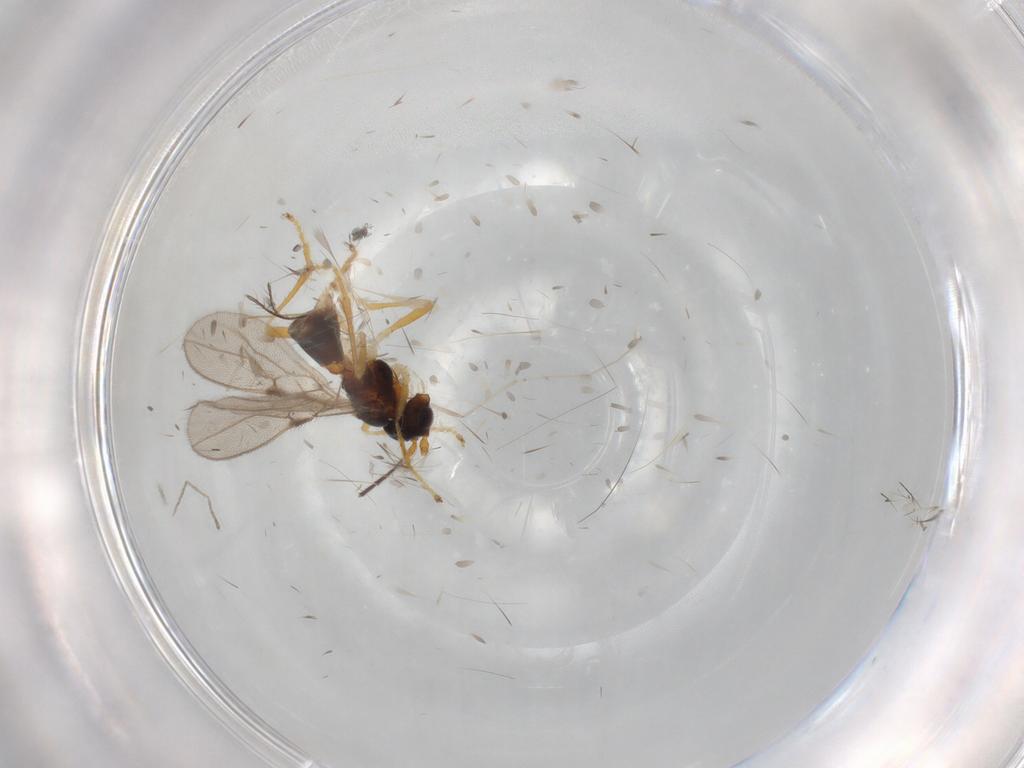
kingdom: Animalia
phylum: Arthropoda
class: Insecta
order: Hymenoptera
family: Braconidae
